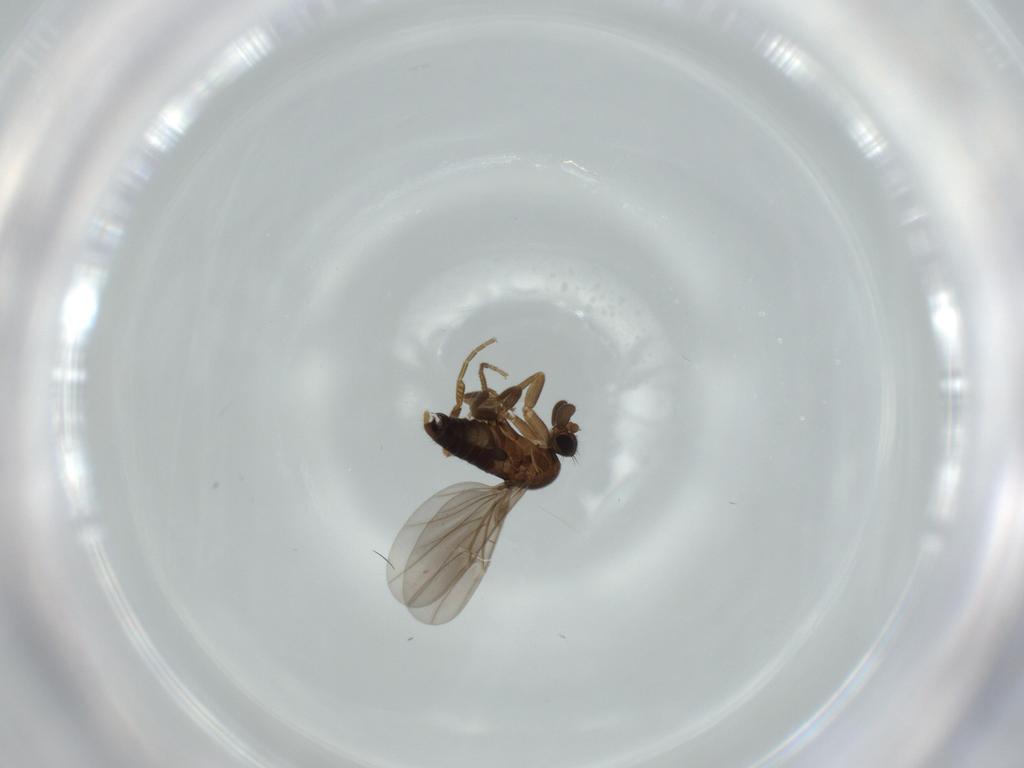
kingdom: Animalia
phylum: Arthropoda
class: Insecta
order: Diptera
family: Phoridae
